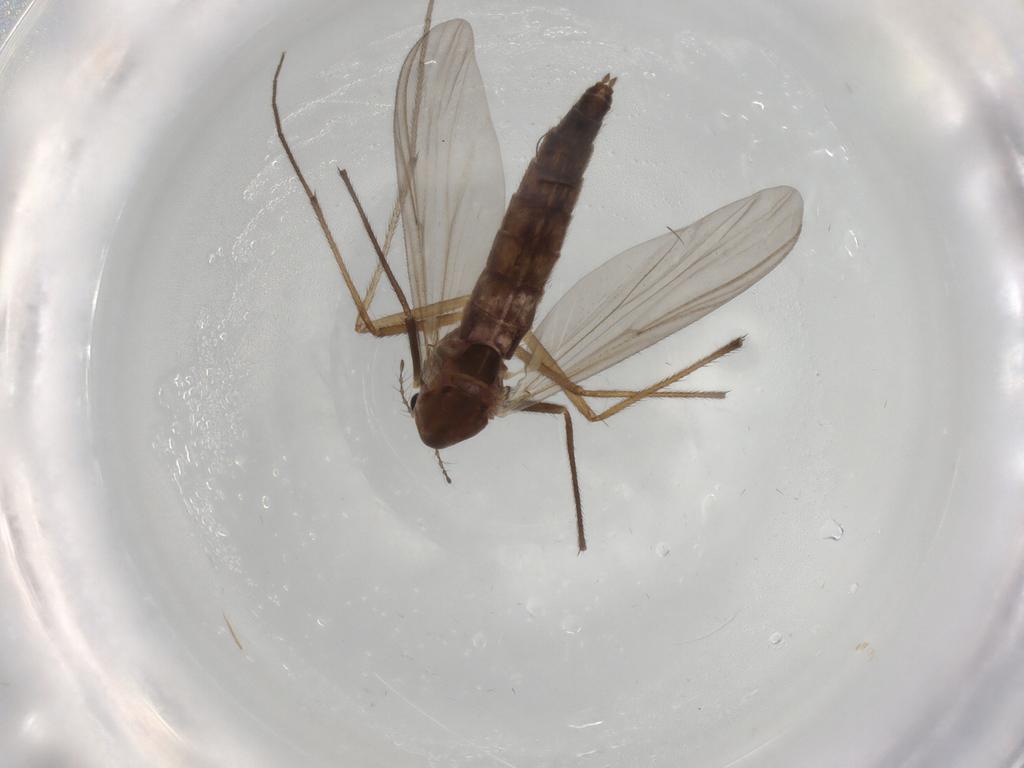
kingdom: Animalia
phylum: Arthropoda
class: Insecta
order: Diptera
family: Chironomidae
